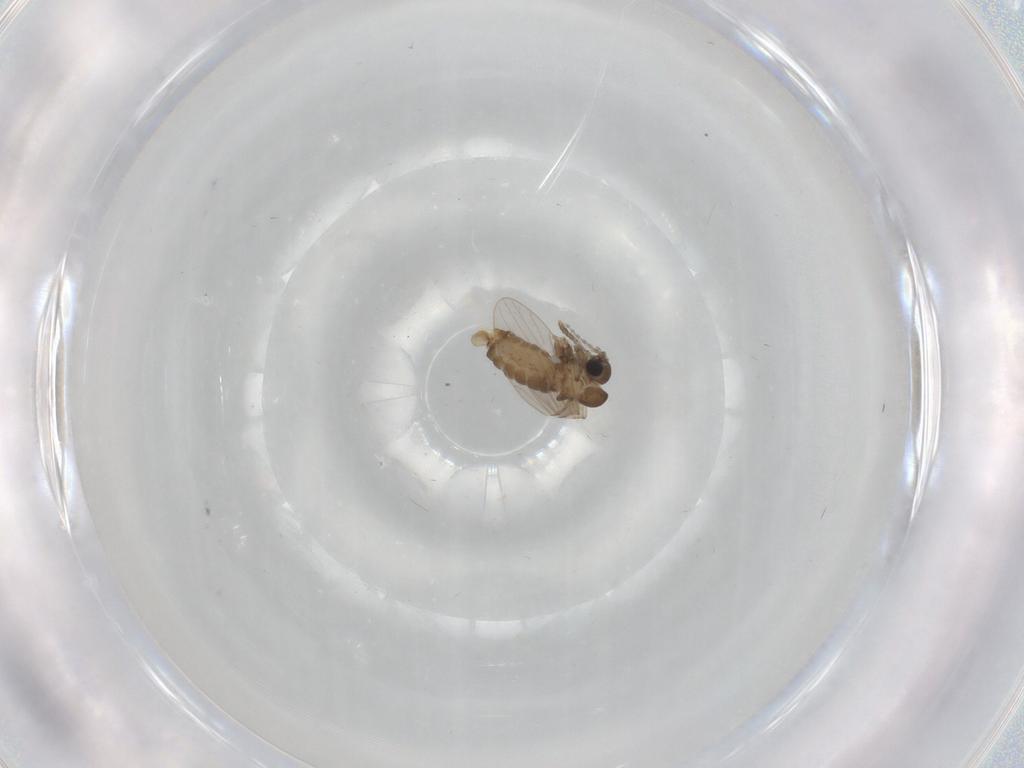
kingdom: Animalia
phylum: Arthropoda
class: Insecta
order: Diptera
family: Psychodidae
